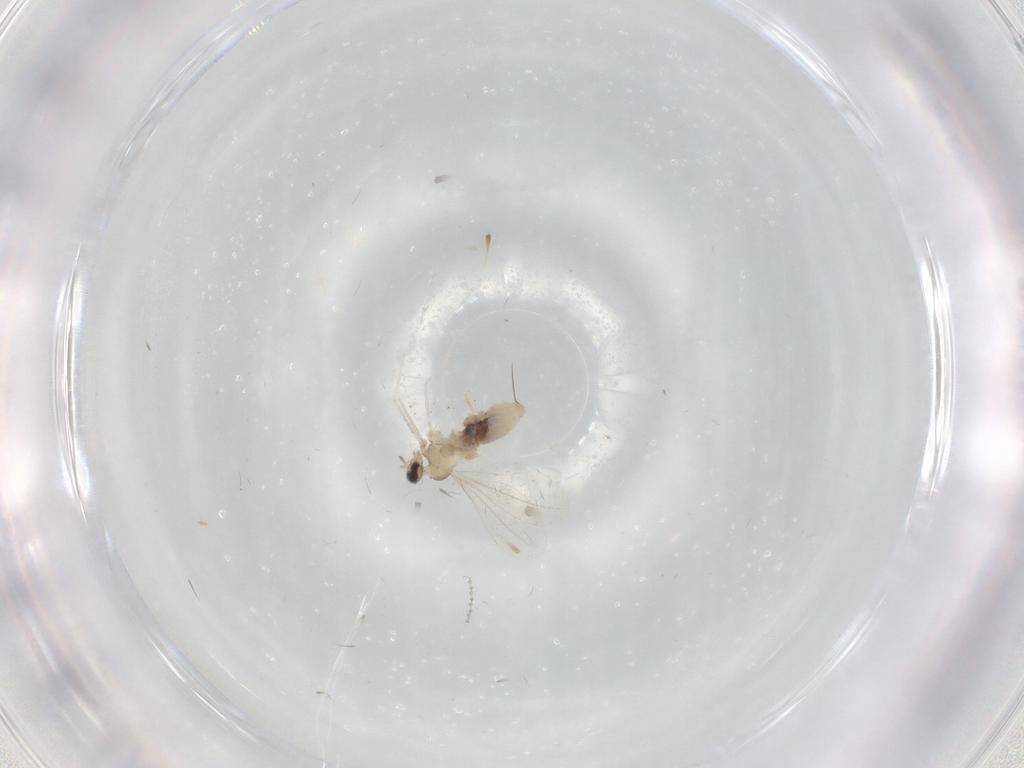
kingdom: Animalia
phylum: Arthropoda
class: Insecta
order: Diptera
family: Cecidomyiidae
